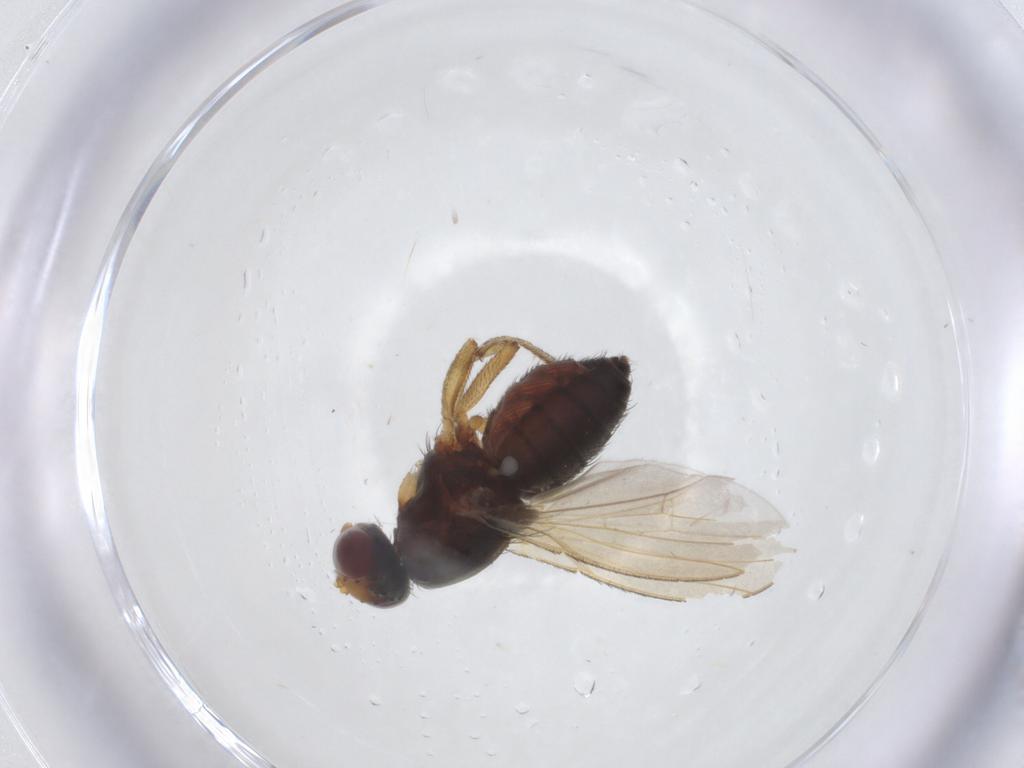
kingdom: Animalia
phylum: Arthropoda
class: Insecta
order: Diptera
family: Heleomyzidae
